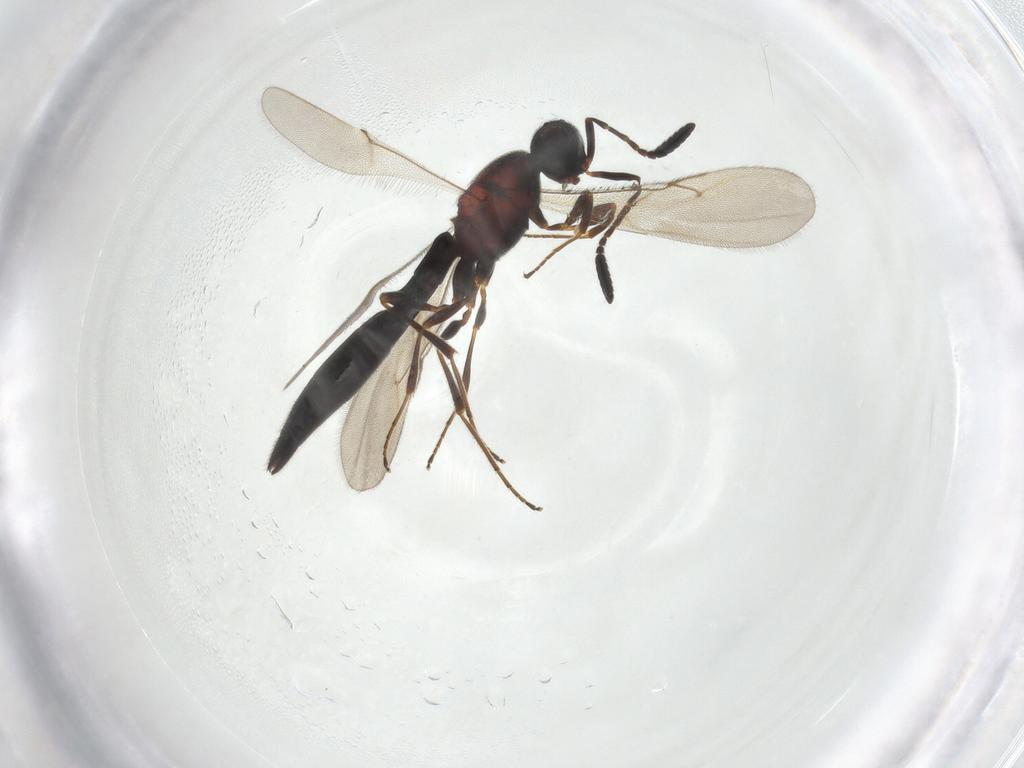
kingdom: Animalia
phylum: Arthropoda
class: Insecta
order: Hymenoptera
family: Scelionidae
